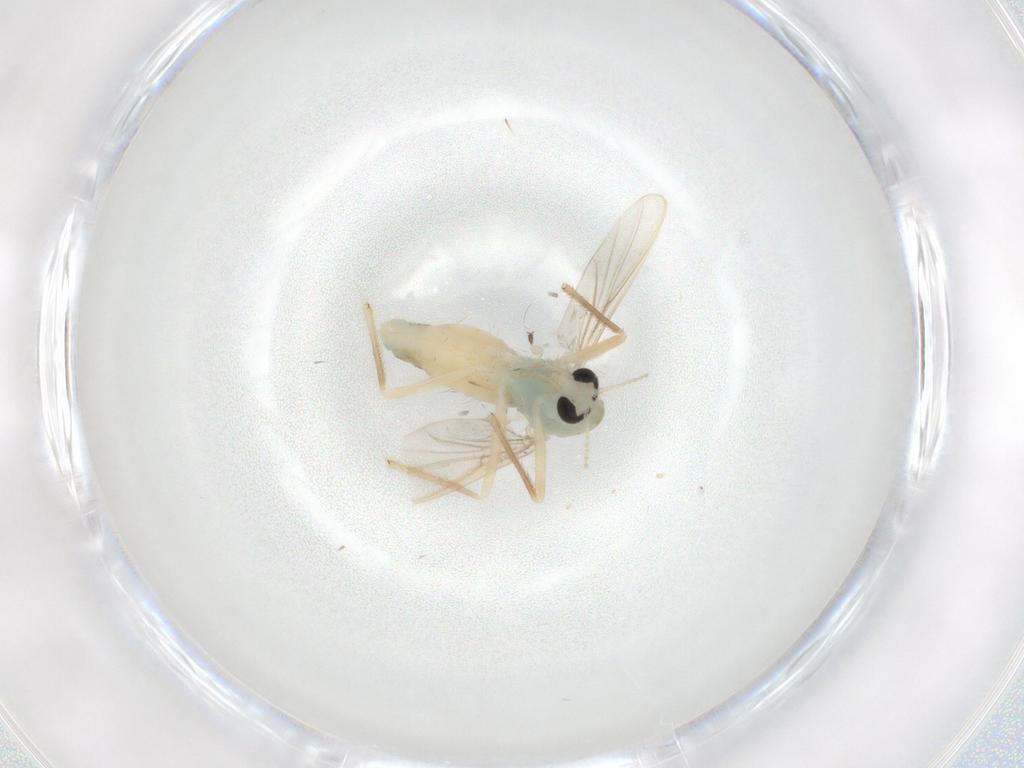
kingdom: Animalia
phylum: Arthropoda
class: Insecta
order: Diptera
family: Chironomidae
